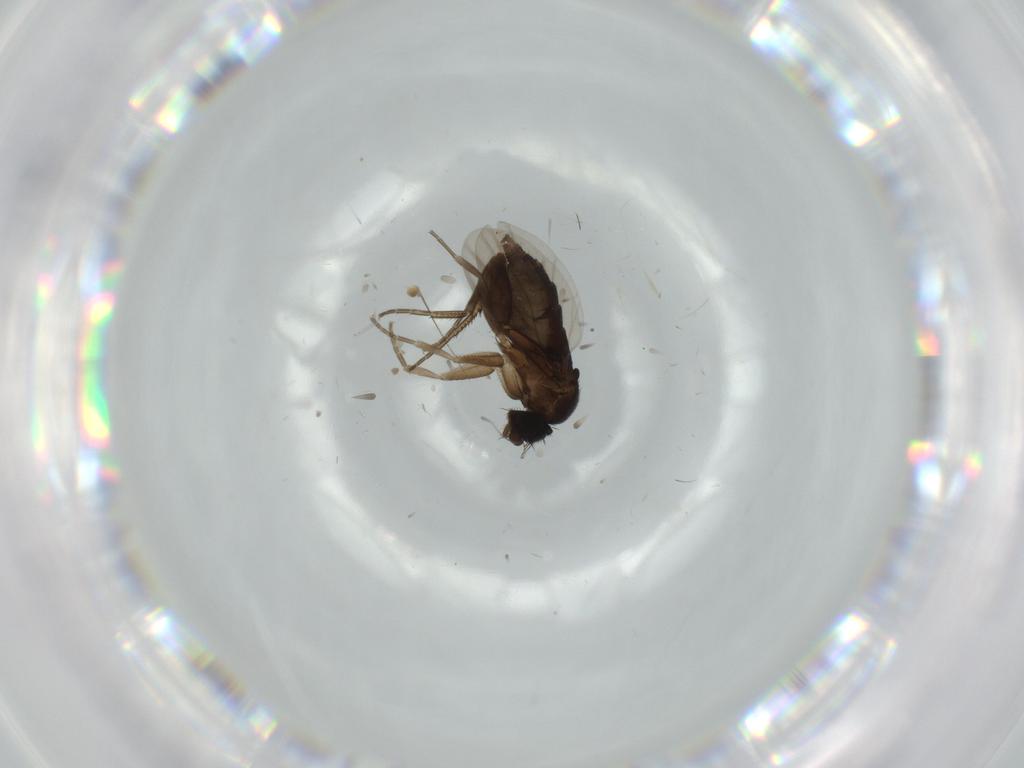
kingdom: Animalia
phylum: Arthropoda
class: Insecta
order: Diptera
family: Phoridae
